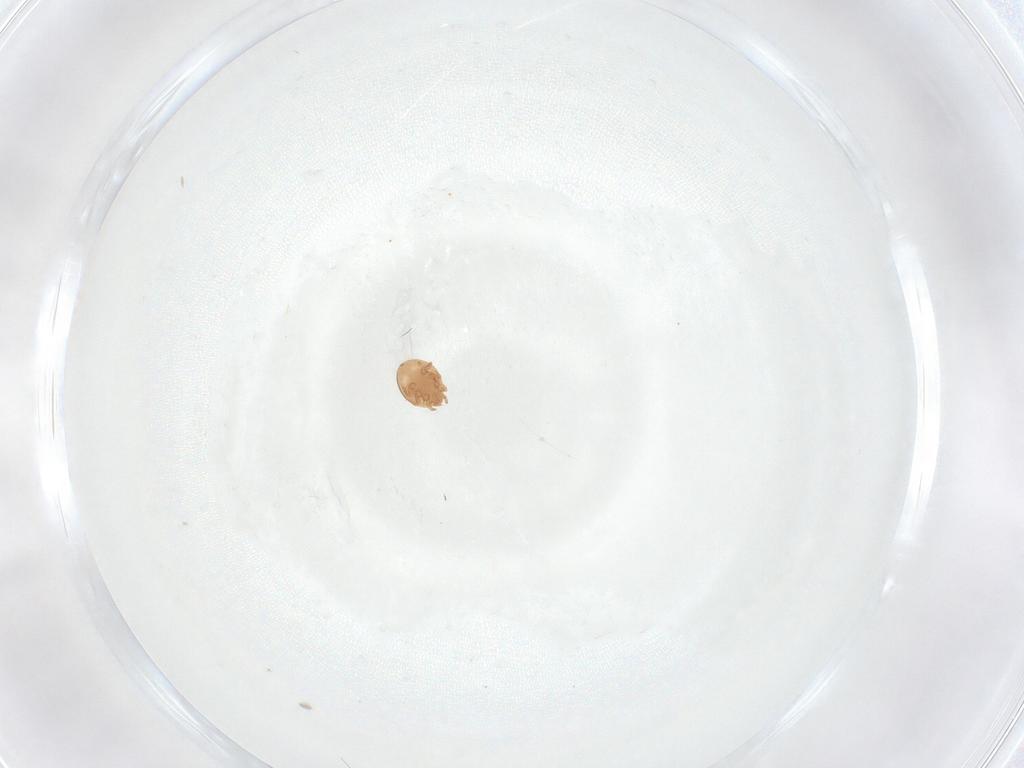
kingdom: Animalia
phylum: Arthropoda
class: Arachnida
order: Mesostigmata
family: Trematuridae
